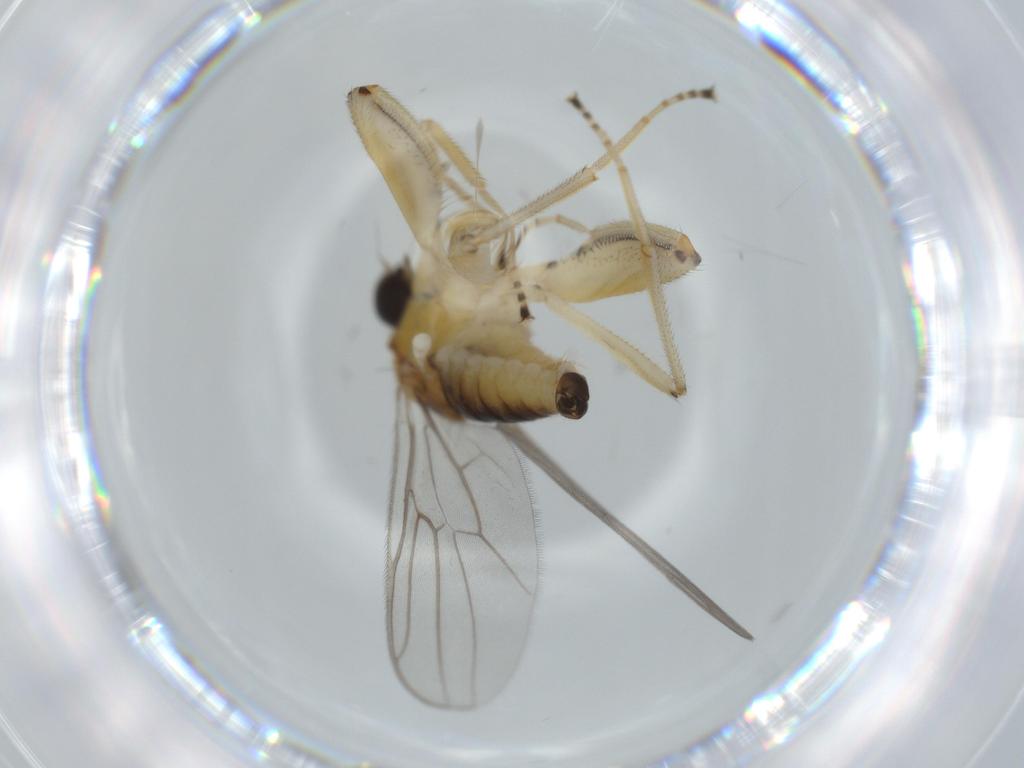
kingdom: Animalia
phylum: Arthropoda
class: Insecta
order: Diptera
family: Hybotidae
